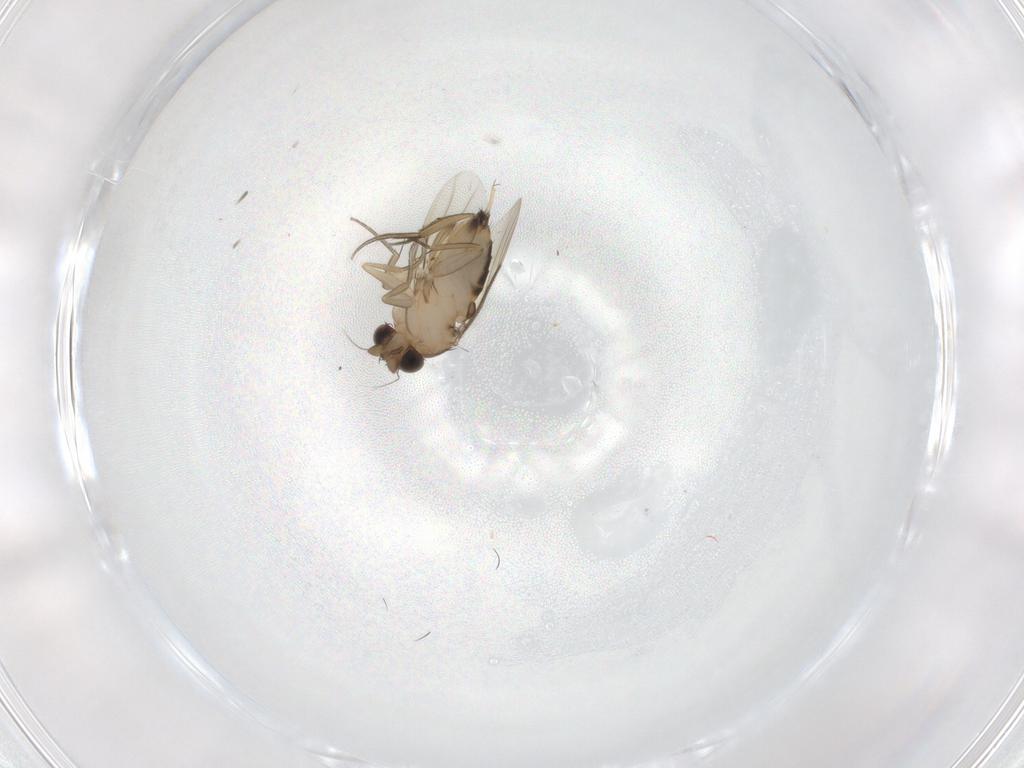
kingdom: Animalia
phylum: Arthropoda
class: Insecta
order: Diptera
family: Phoridae
